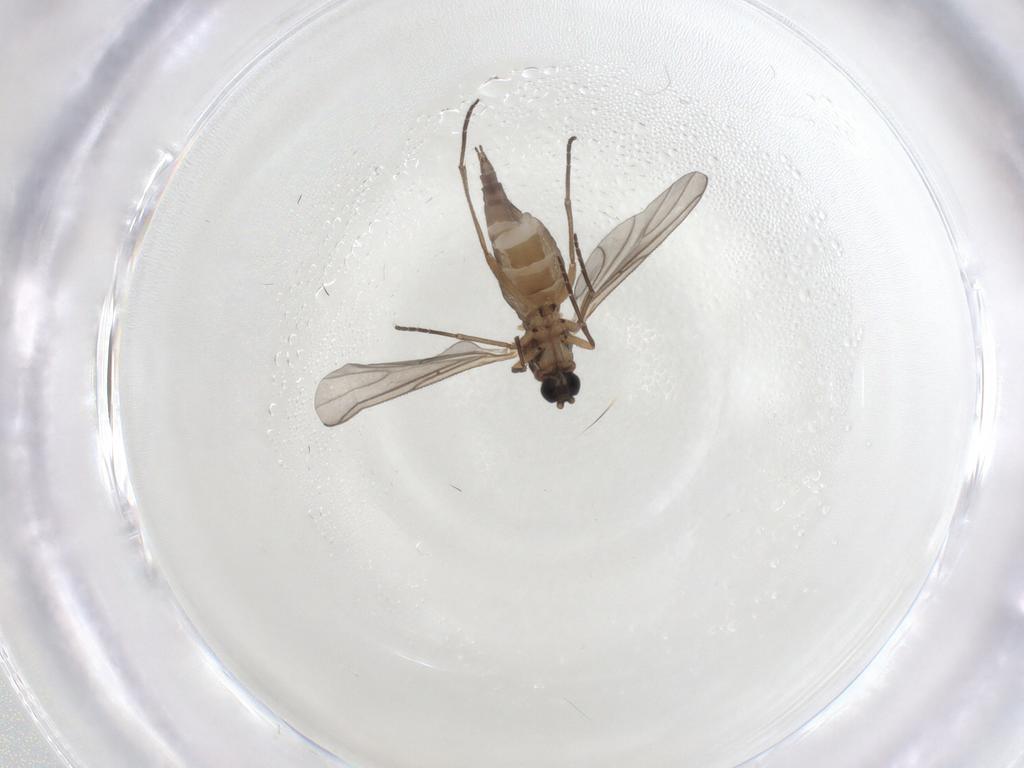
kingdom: Animalia
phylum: Arthropoda
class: Insecta
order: Diptera
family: Sciaridae
